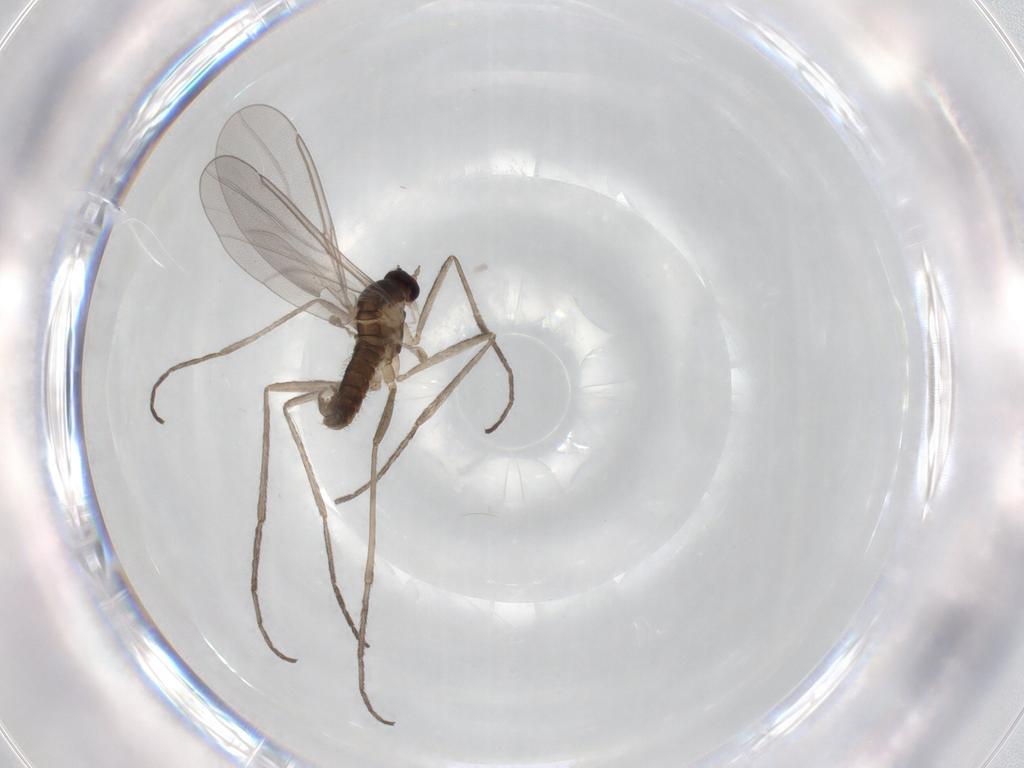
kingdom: Animalia
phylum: Arthropoda
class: Insecta
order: Diptera
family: Cecidomyiidae
